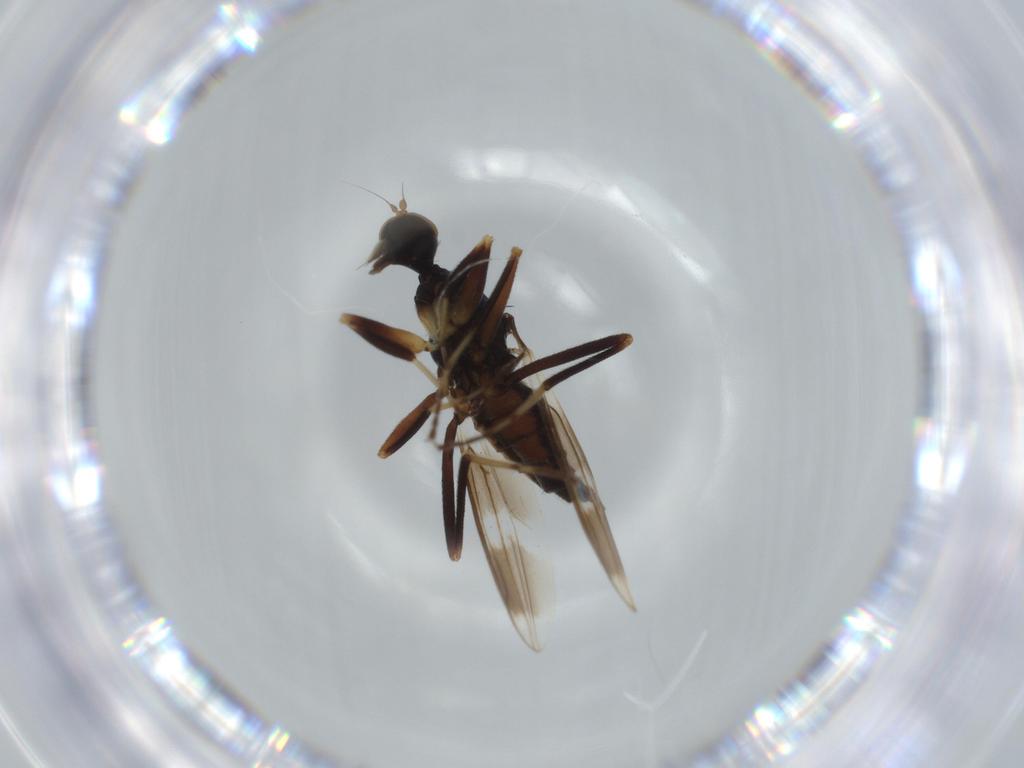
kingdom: Animalia
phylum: Arthropoda
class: Insecta
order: Diptera
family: Hybotidae
